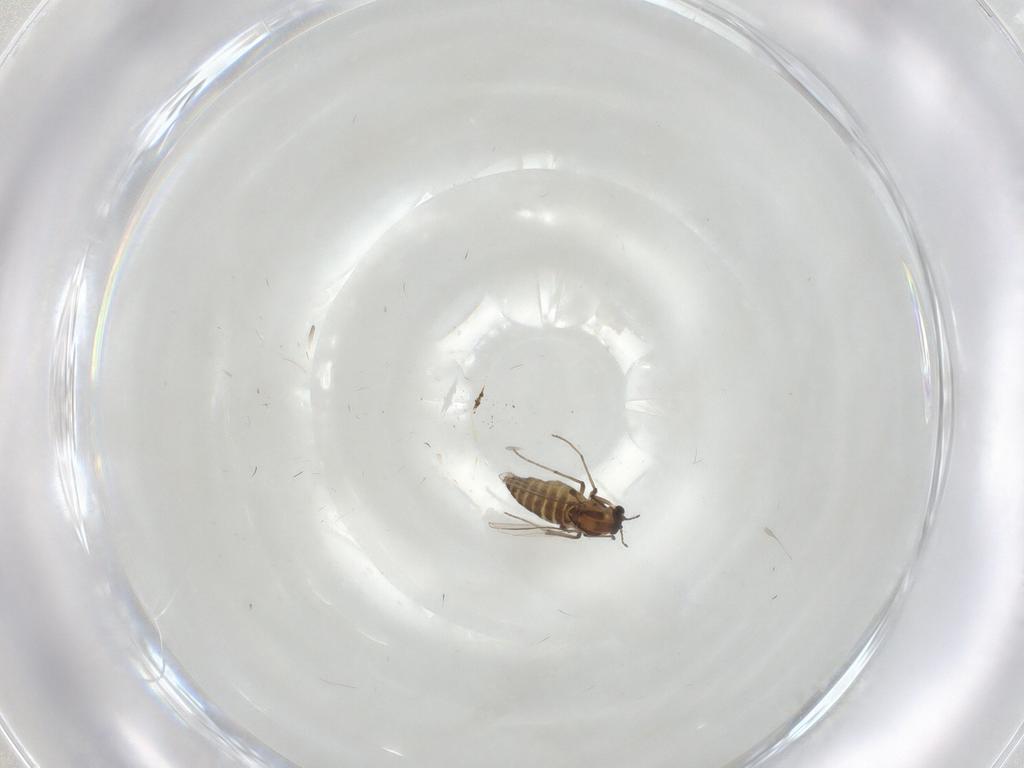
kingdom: Animalia
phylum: Arthropoda
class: Insecta
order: Diptera
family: Chironomidae
